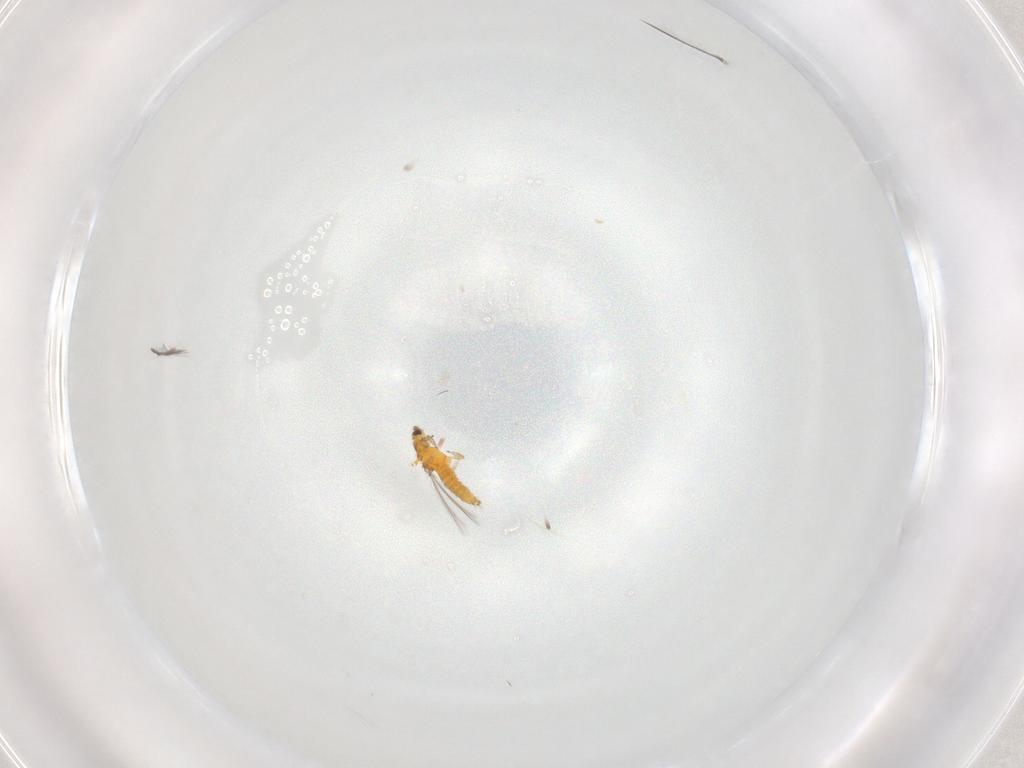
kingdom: Animalia
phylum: Arthropoda
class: Insecta
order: Thysanoptera
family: Thripidae
